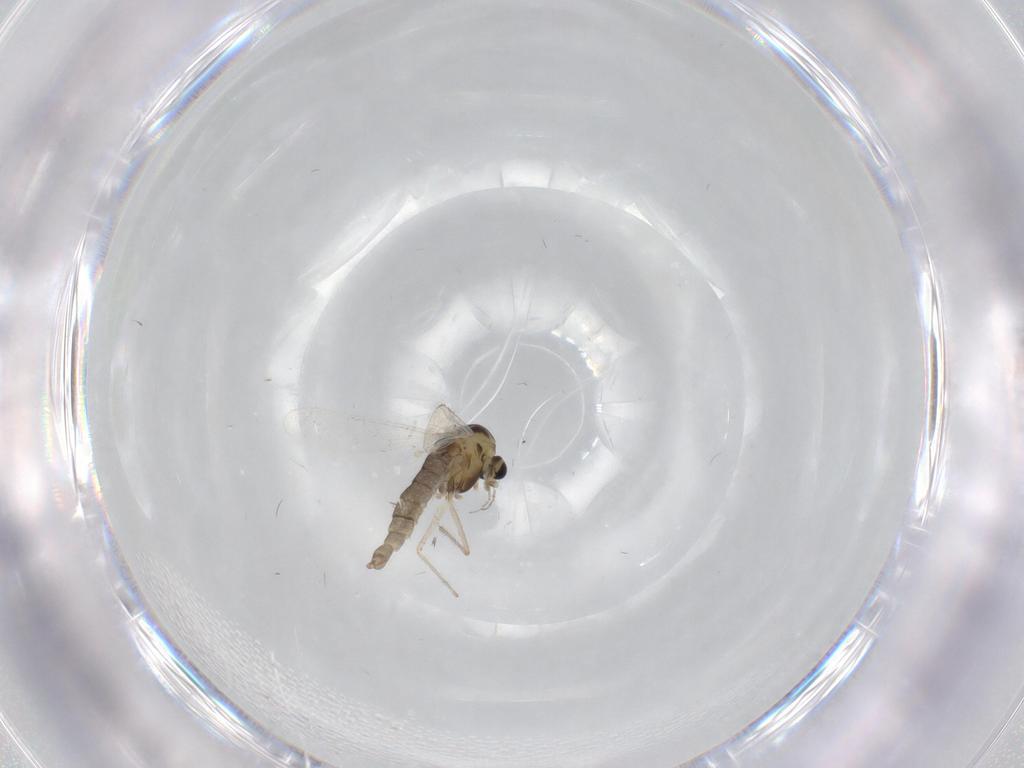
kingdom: Animalia
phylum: Arthropoda
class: Insecta
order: Diptera
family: Chironomidae
